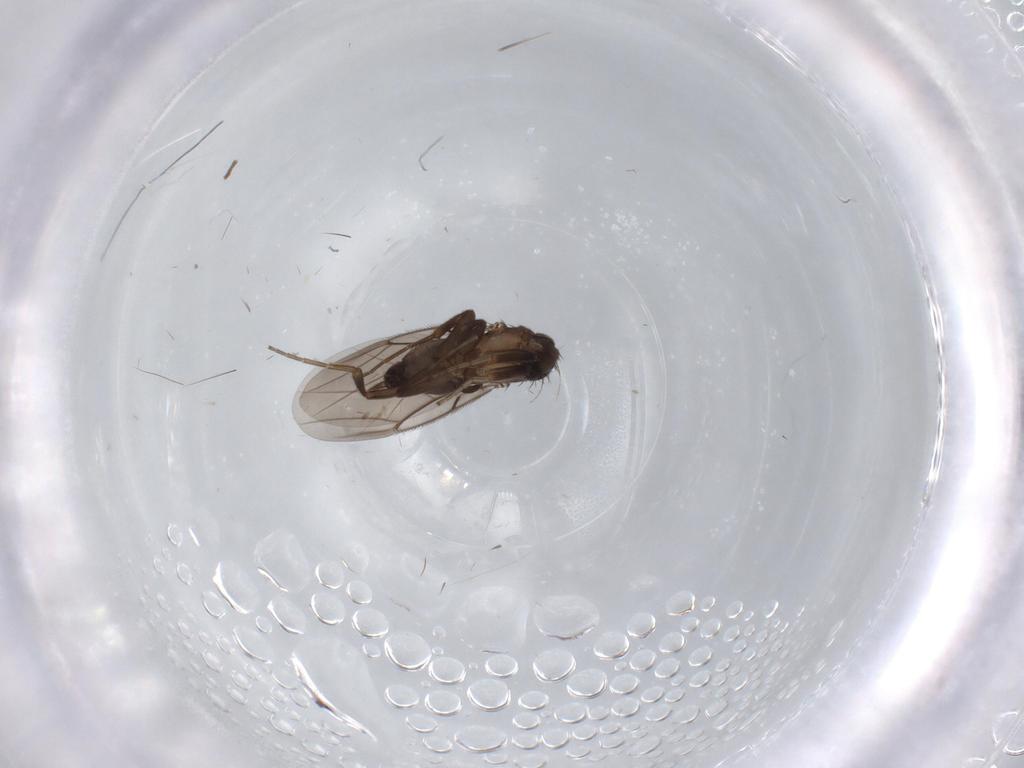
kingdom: Animalia
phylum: Arthropoda
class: Insecta
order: Diptera
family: Phoridae
